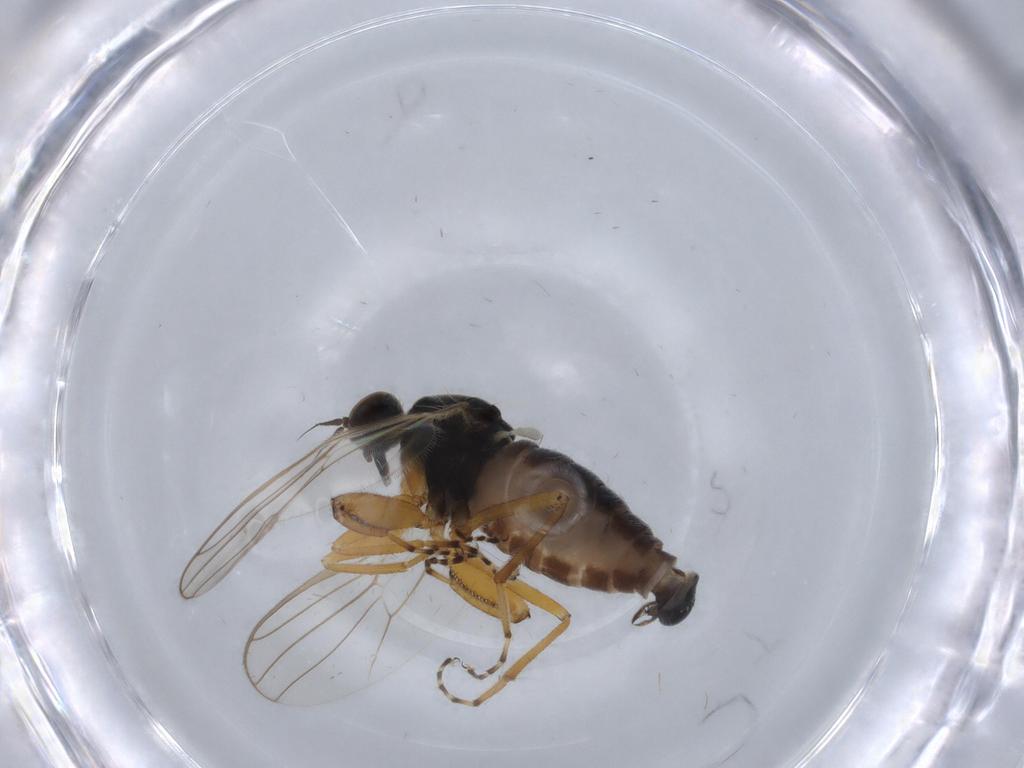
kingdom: Animalia
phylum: Arthropoda
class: Insecta
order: Diptera
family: Hybotidae
